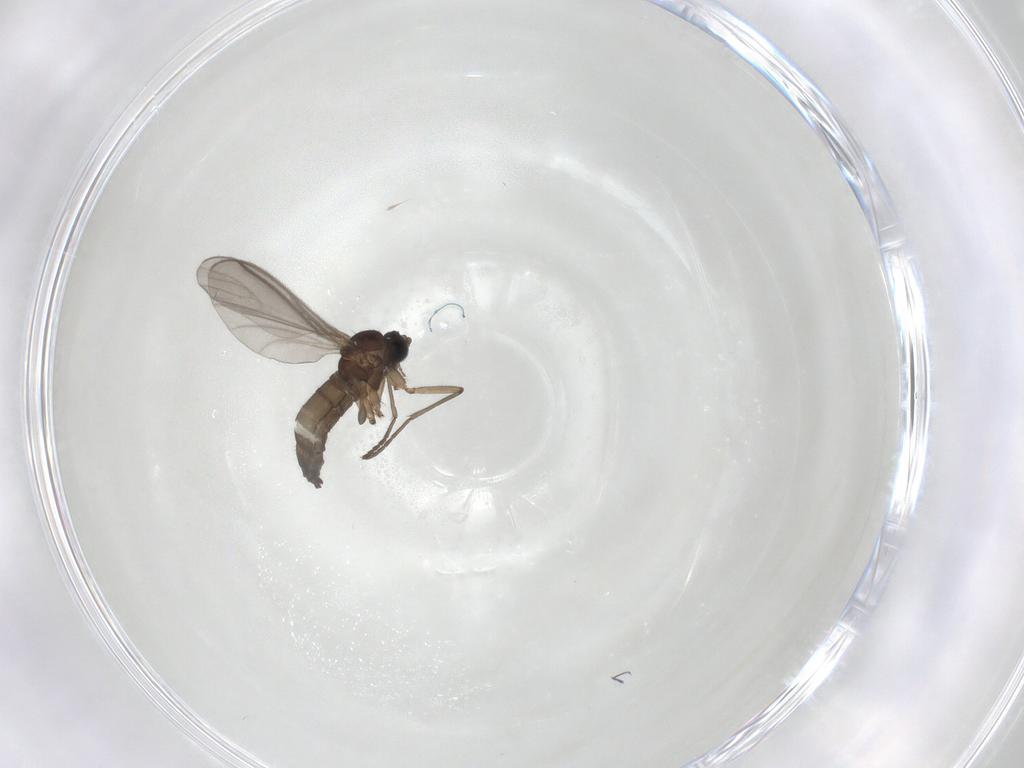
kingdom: Animalia
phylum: Arthropoda
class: Insecta
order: Diptera
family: Sciaridae
